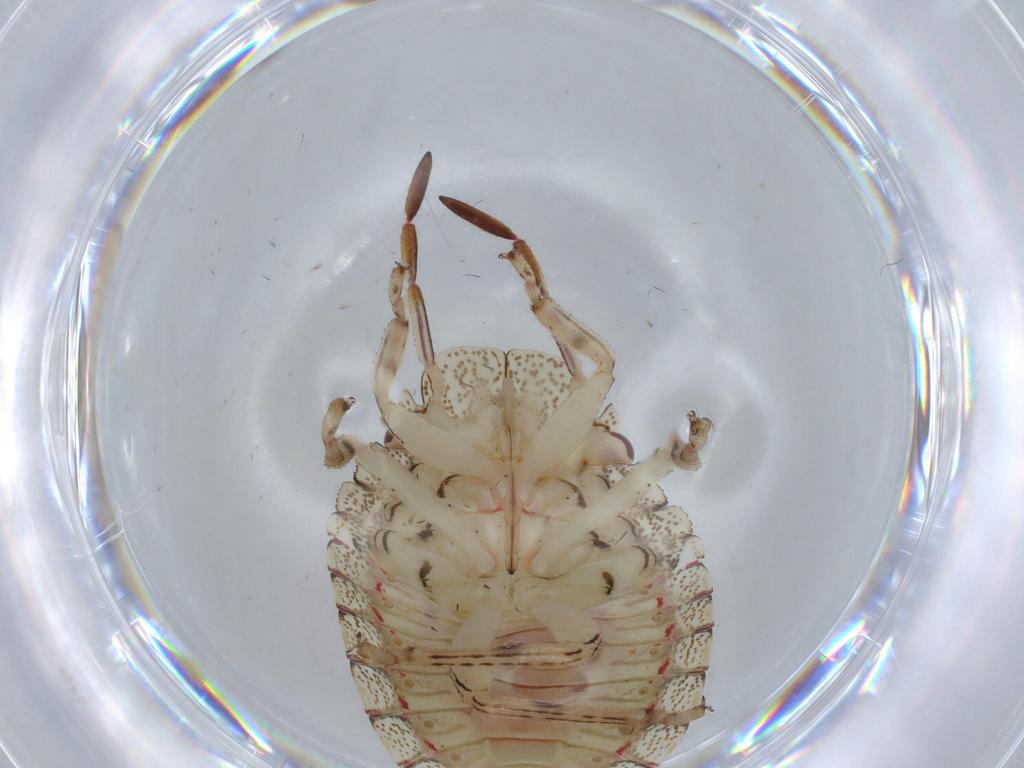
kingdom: Animalia
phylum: Arthropoda
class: Insecta
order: Hemiptera
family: Pentatomidae
